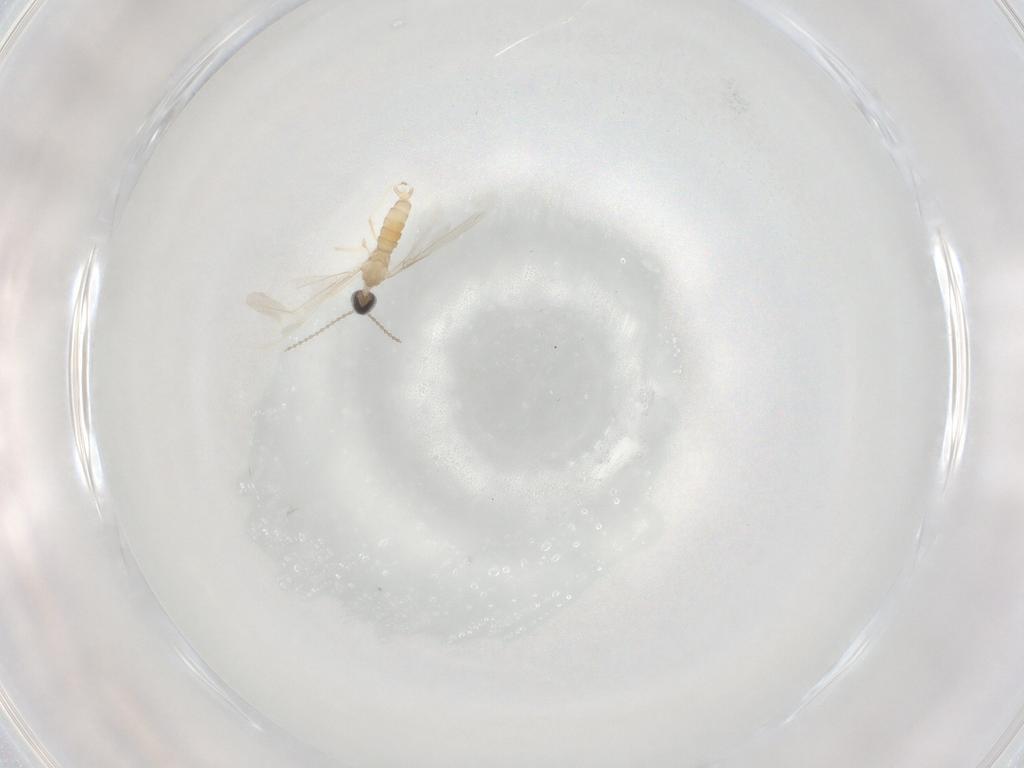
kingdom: Animalia
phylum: Arthropoda
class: Insecta
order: Diptera
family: Cecidomyiidae
